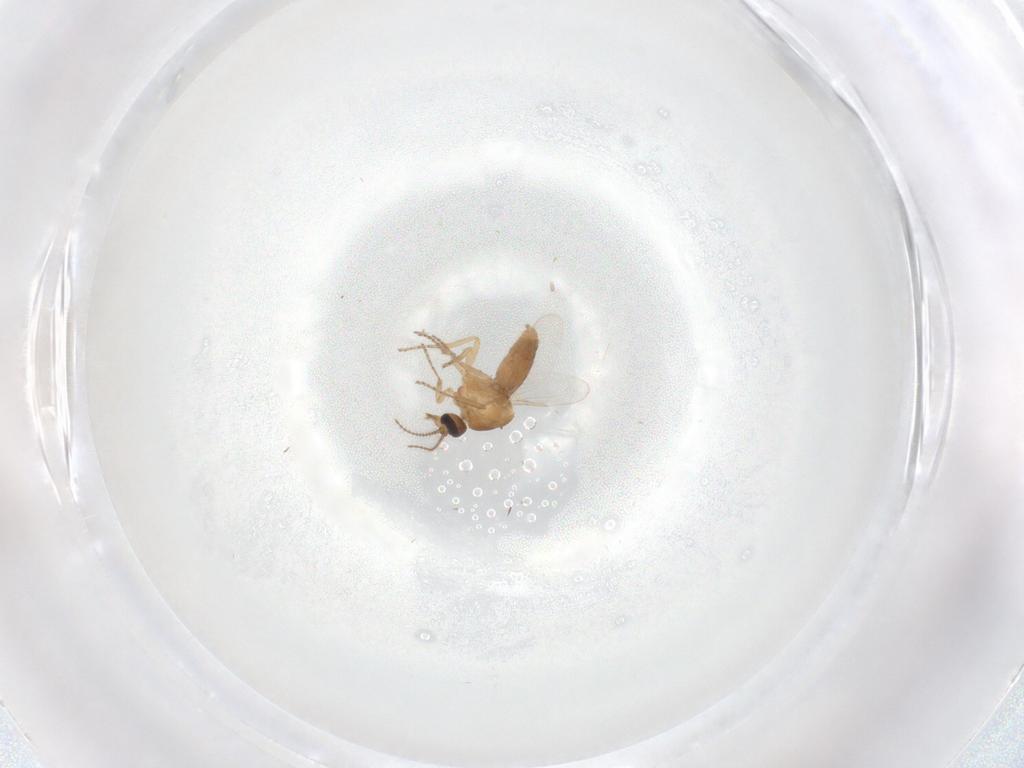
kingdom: Animalia
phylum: Arthropoda
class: Insecta
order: Diptera
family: Ceratopogonidae
